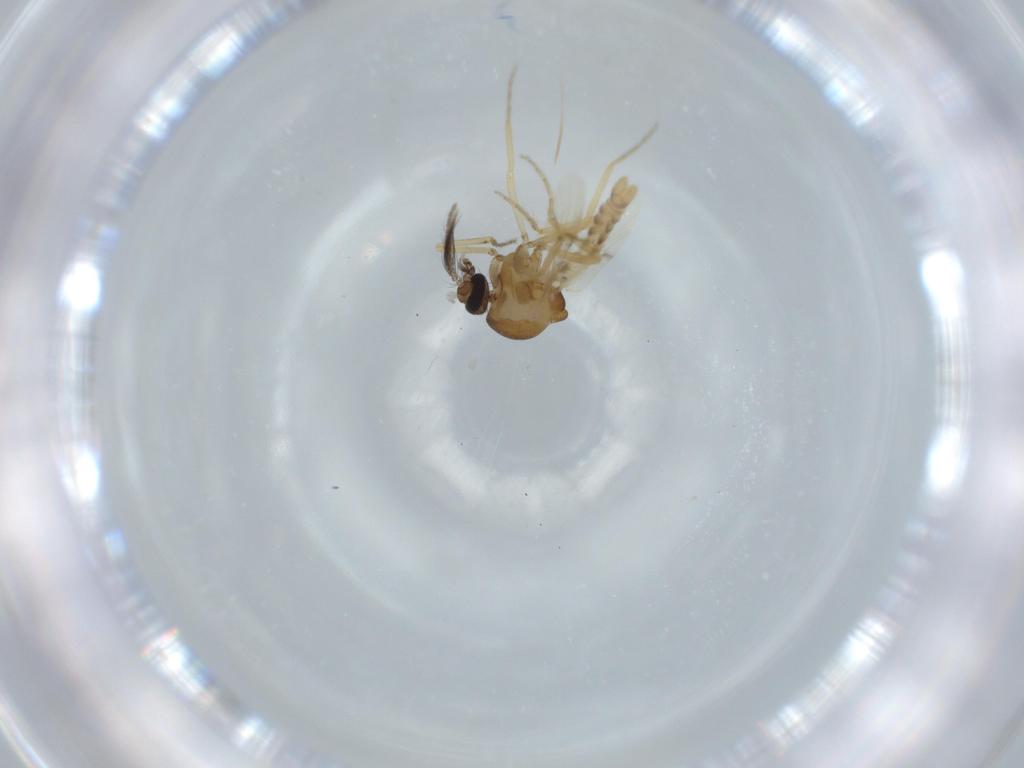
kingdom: Animalia
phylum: Arthropoda
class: Insecta
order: Diptera
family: Ceratopogonidae
